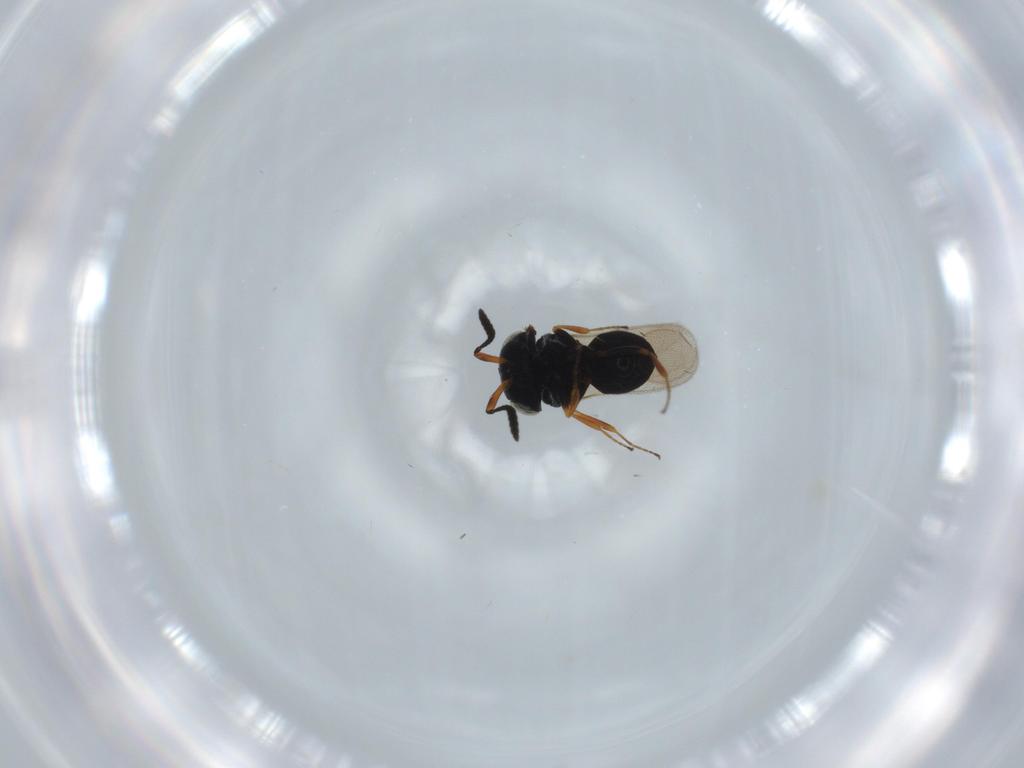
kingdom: Animalia
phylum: Arthropoda
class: Insecta
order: Hymenoptera
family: Scelionidae
